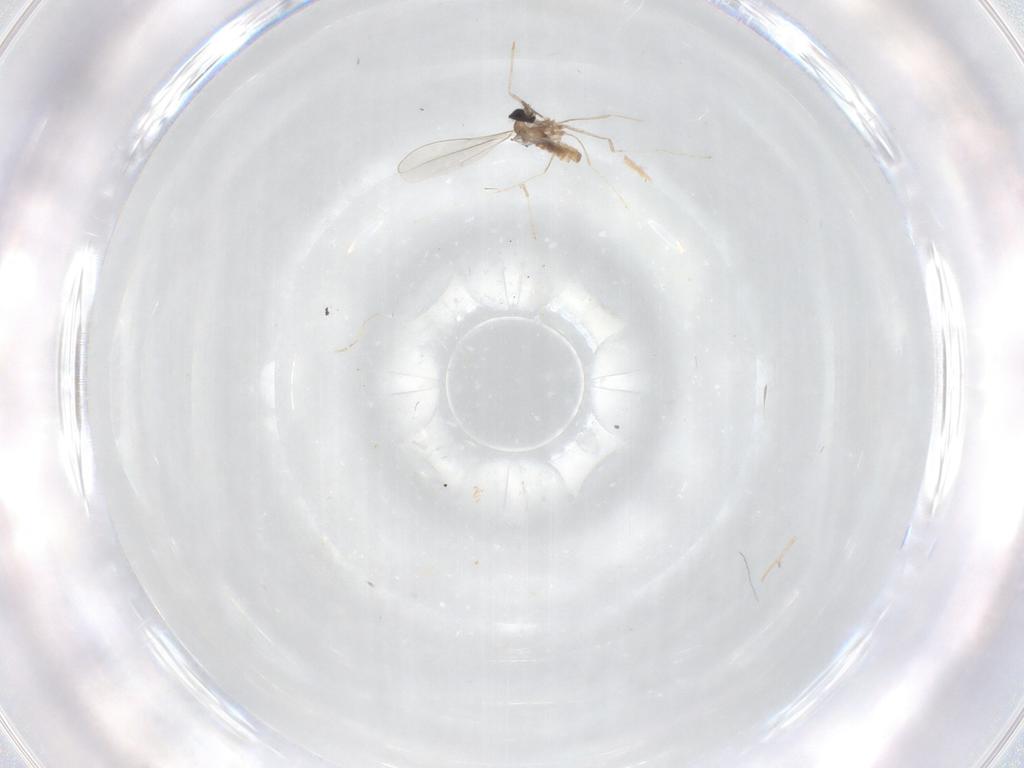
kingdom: Animalia
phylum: Arthropoda
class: Insecta
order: Diptera
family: Cecidomyiidae
